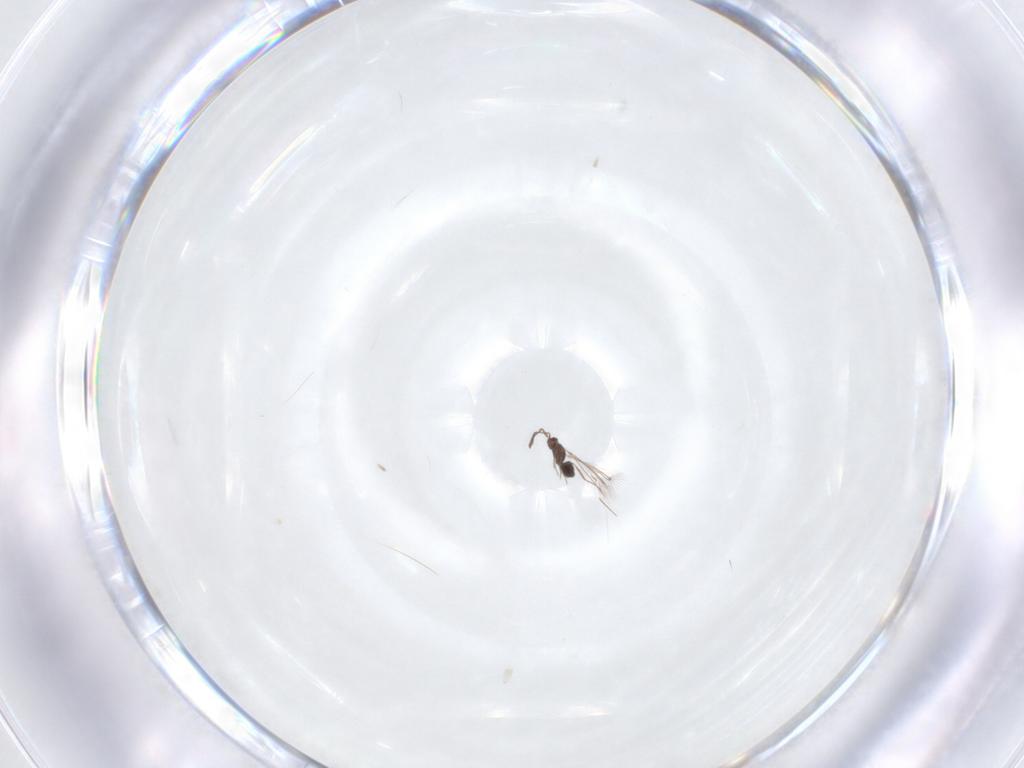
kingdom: Animalia
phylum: Arthropoda
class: Insecta
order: Hymenoptera
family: Mymaridae
